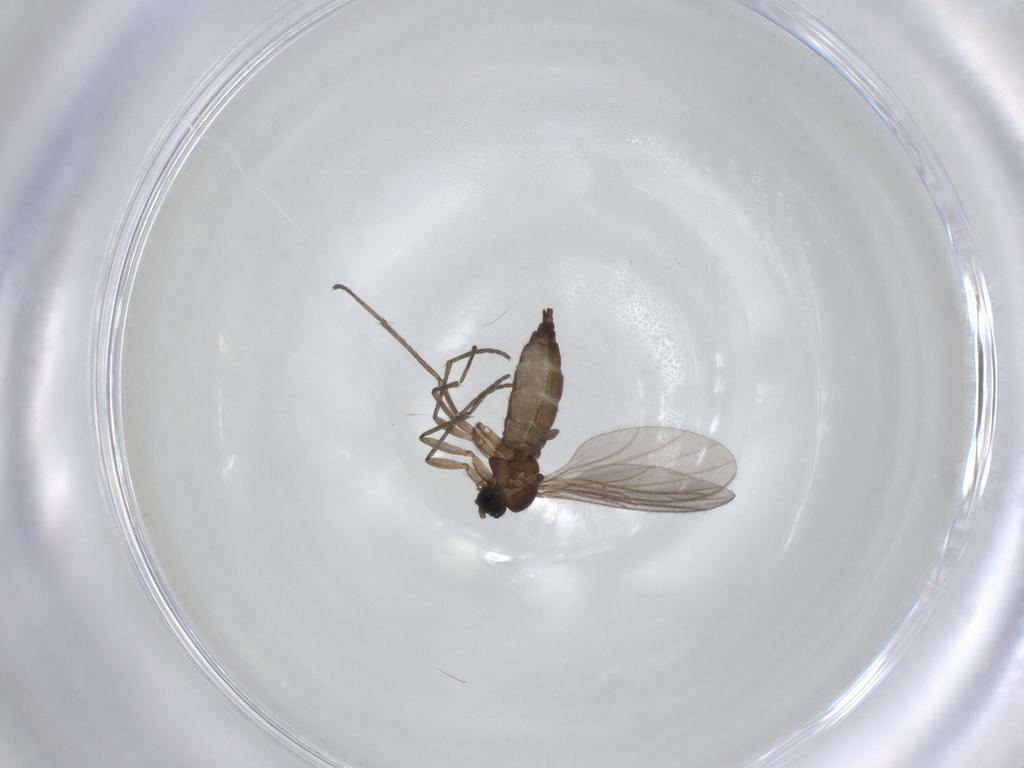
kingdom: Animalia
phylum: Arthropoda
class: Insecta
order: Diptera
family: Sciaridae
